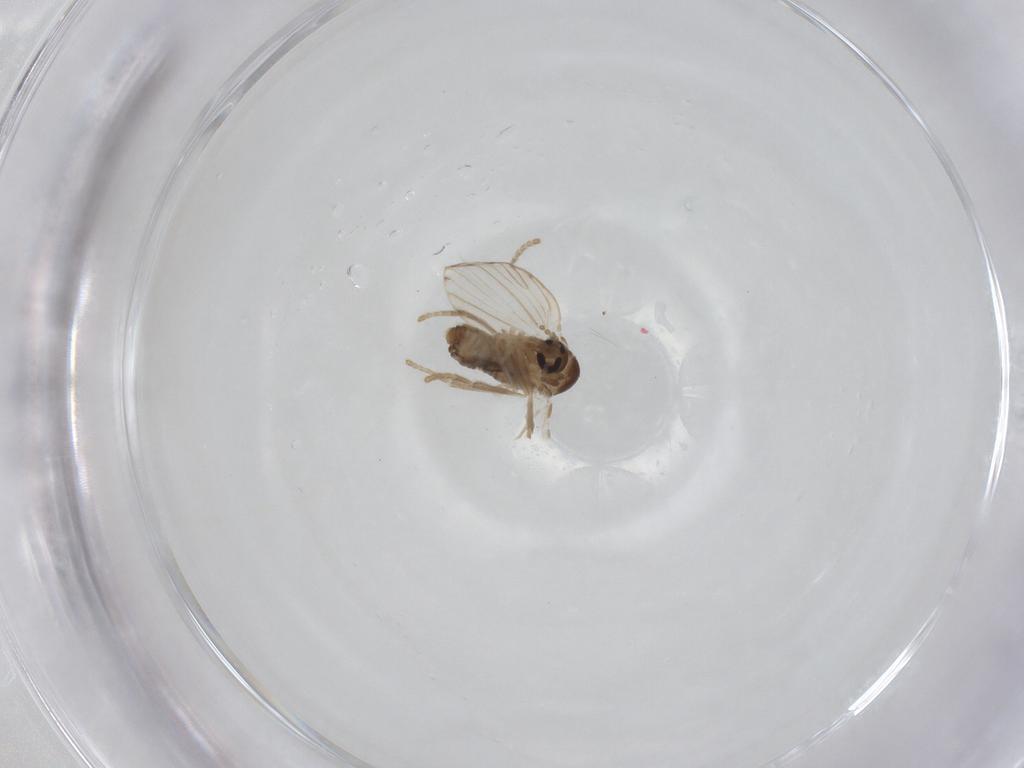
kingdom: Animalia
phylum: Arthropoda
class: Insecta
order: Diptera
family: Psychodidae
